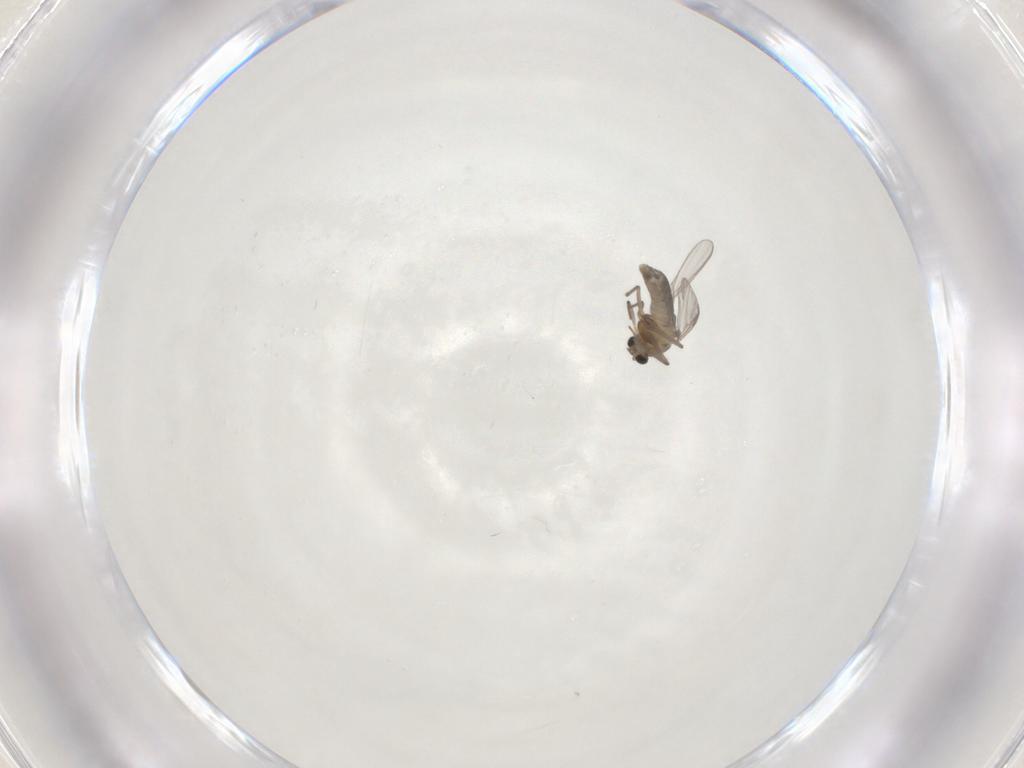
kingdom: Animalia
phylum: Arthropoda
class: Insecta
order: Diptera
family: Chironomidae
